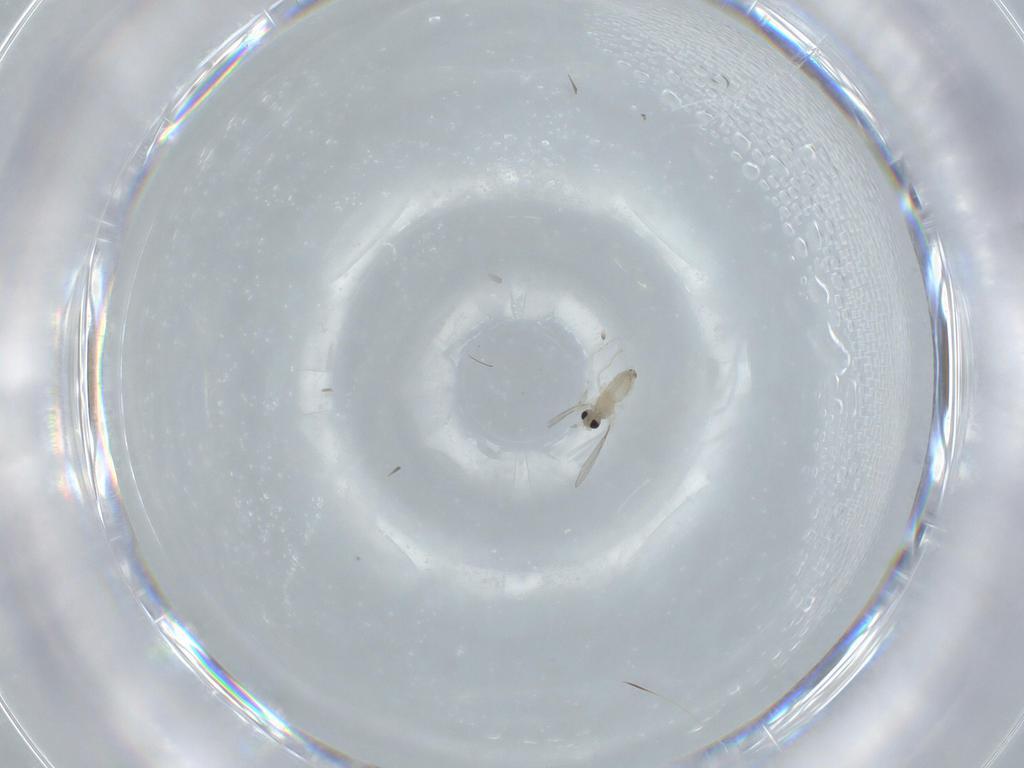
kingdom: Animalia
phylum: Arthropoda
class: Insecta
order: Diptera
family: Cecidomyiidae
